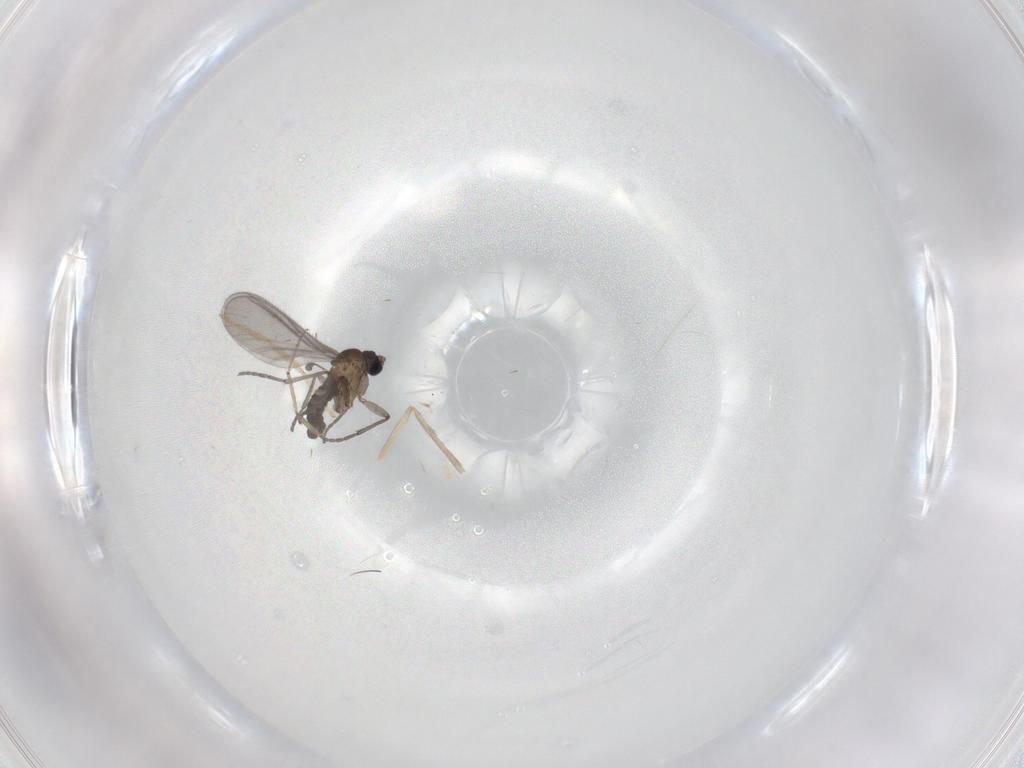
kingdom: Animalia
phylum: Arthropoda
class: Insecta
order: Diptera
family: Sciaridae
